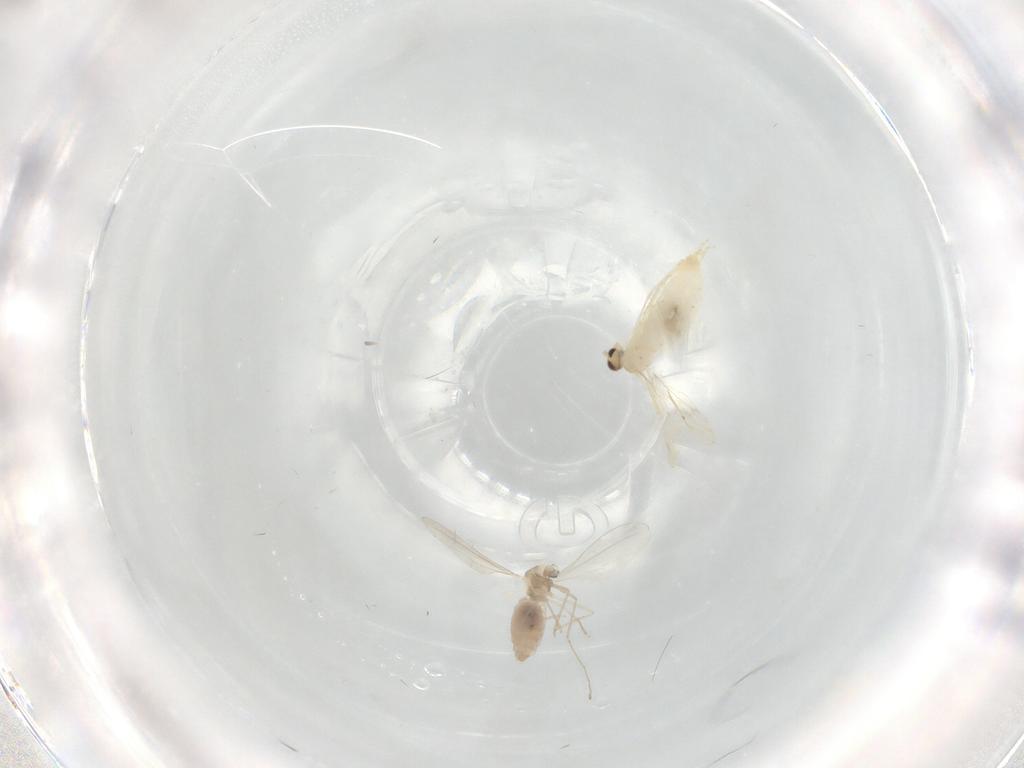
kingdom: Animalia
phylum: Arthropoda
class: Insecta
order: Diptera
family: Cecidomyiidae
